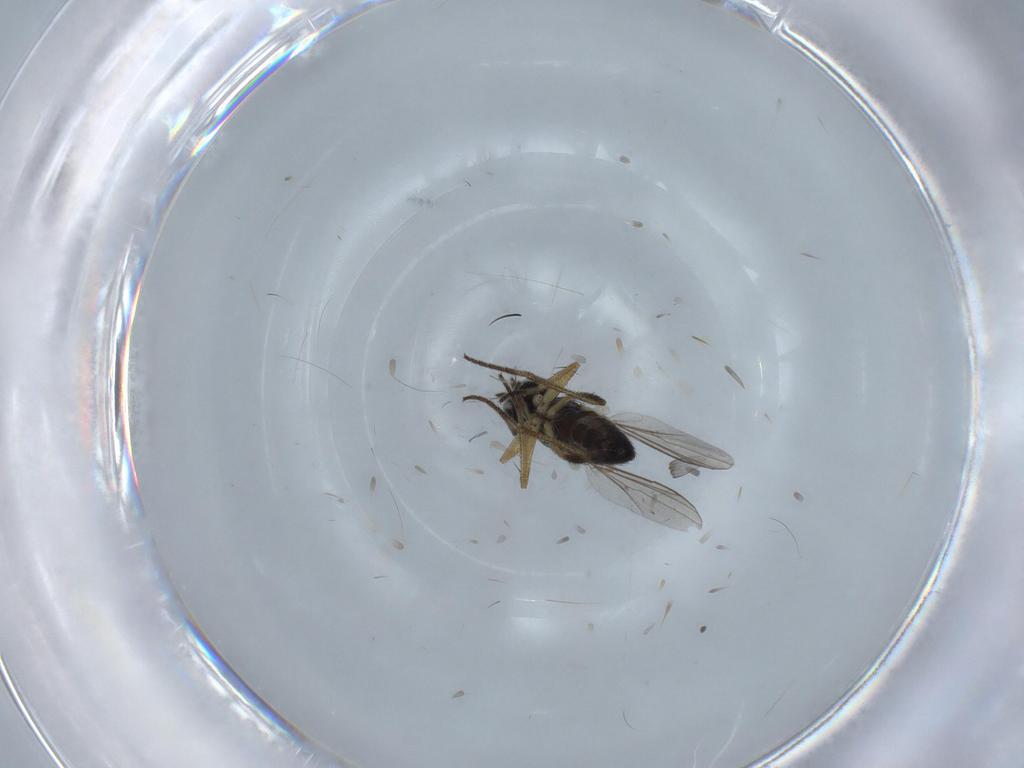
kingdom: Animalia
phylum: Arthropoda
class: Insecta
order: Diptera
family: Dolichopodidae
